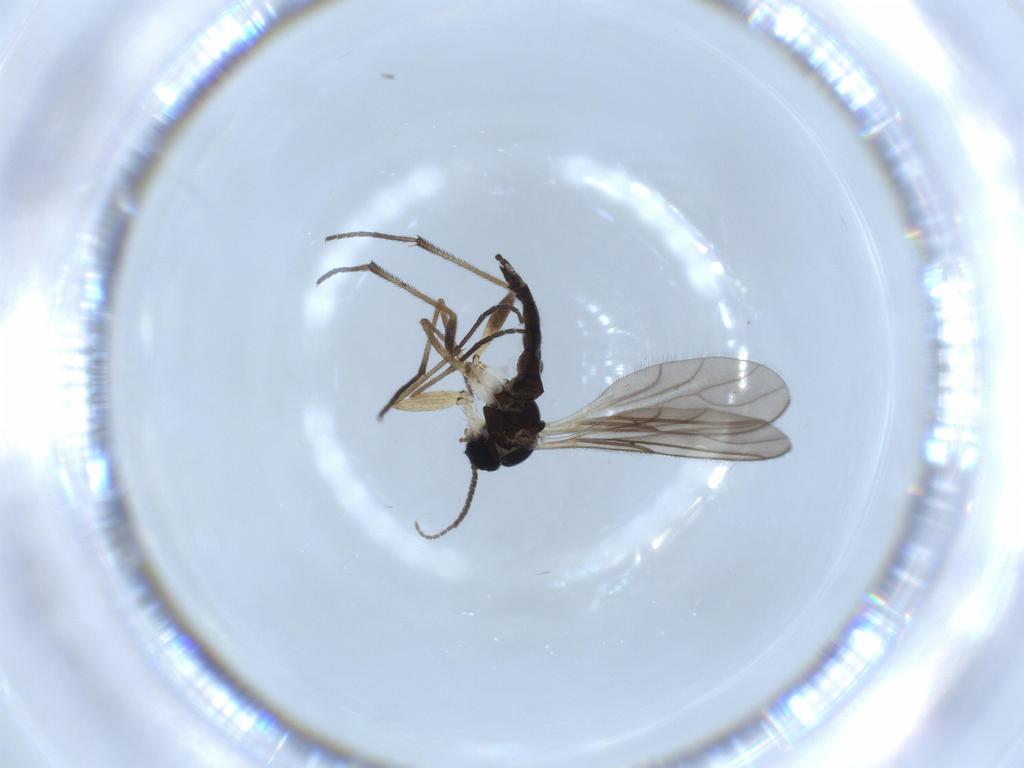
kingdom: Animalia
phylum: Arthropoda
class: Insecta
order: Diptera
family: Sciaridae
